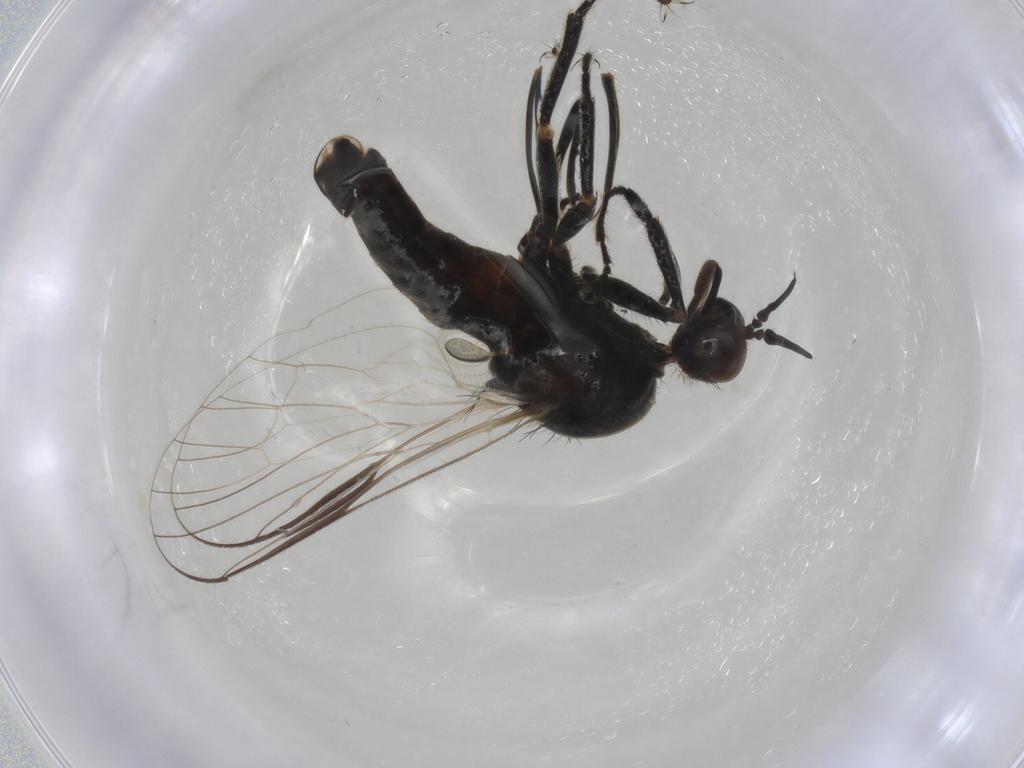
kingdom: Animalia
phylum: Arthropoda
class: Insecta
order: Diptera
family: Empididae
